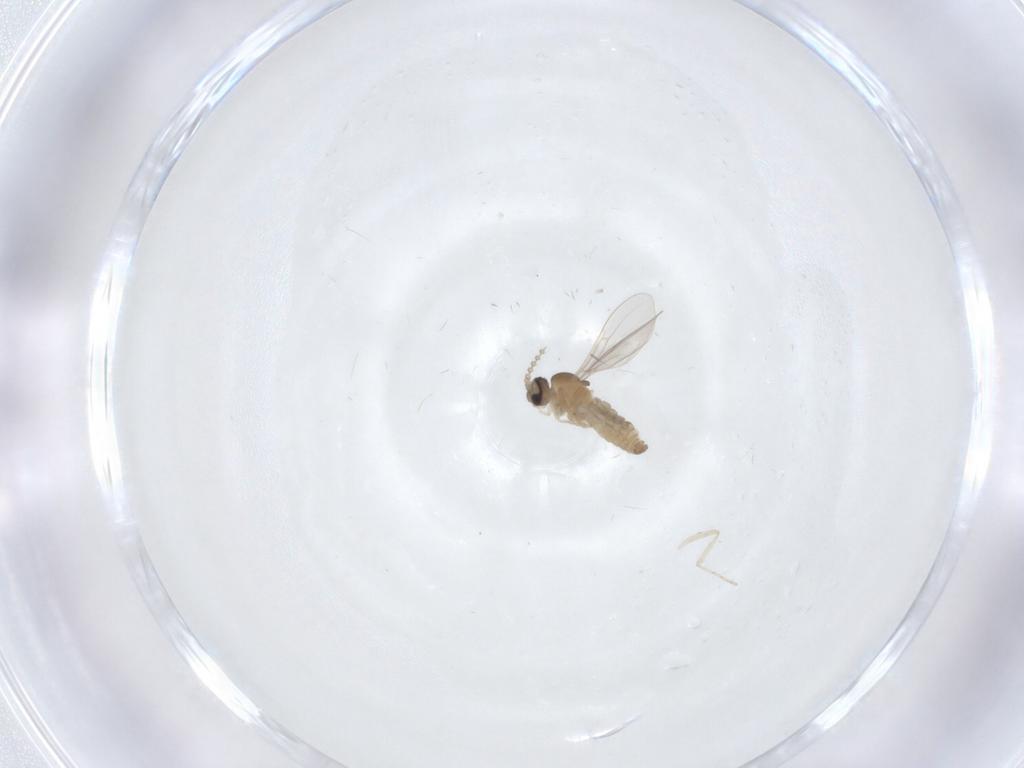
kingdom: Animalia
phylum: Arthropoda
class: Insecta
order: Diptera
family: Cecidomyiidae
